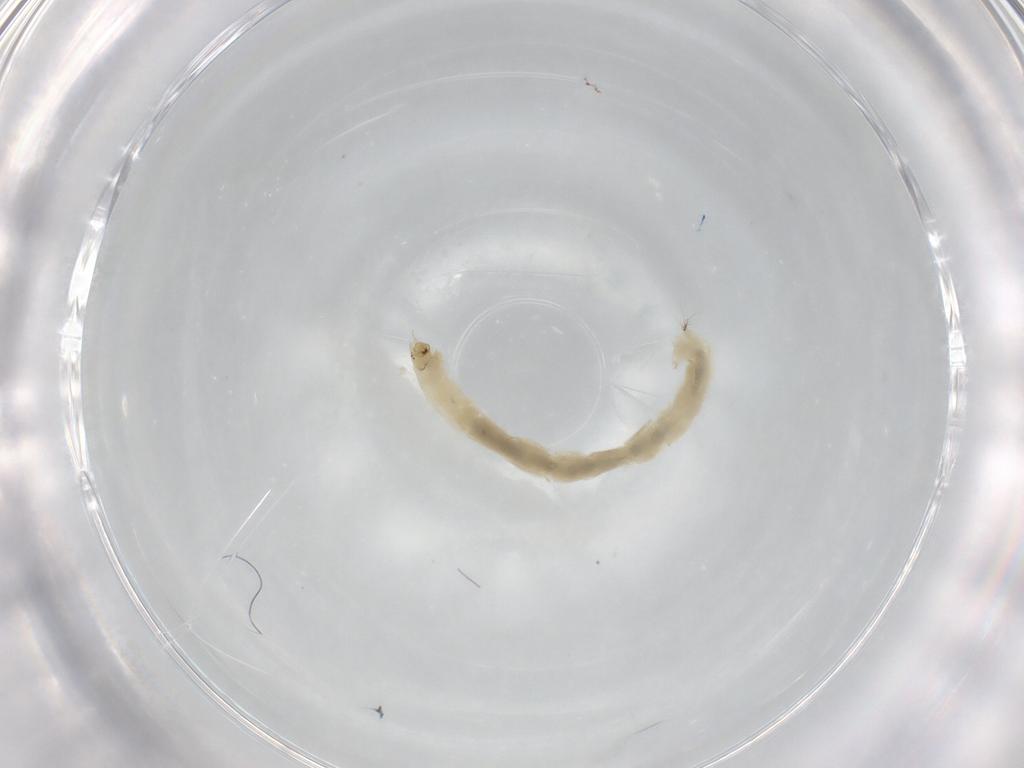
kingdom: Animalia
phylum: Arthropoda
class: Insecta
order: Diptera
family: Chironomidae
